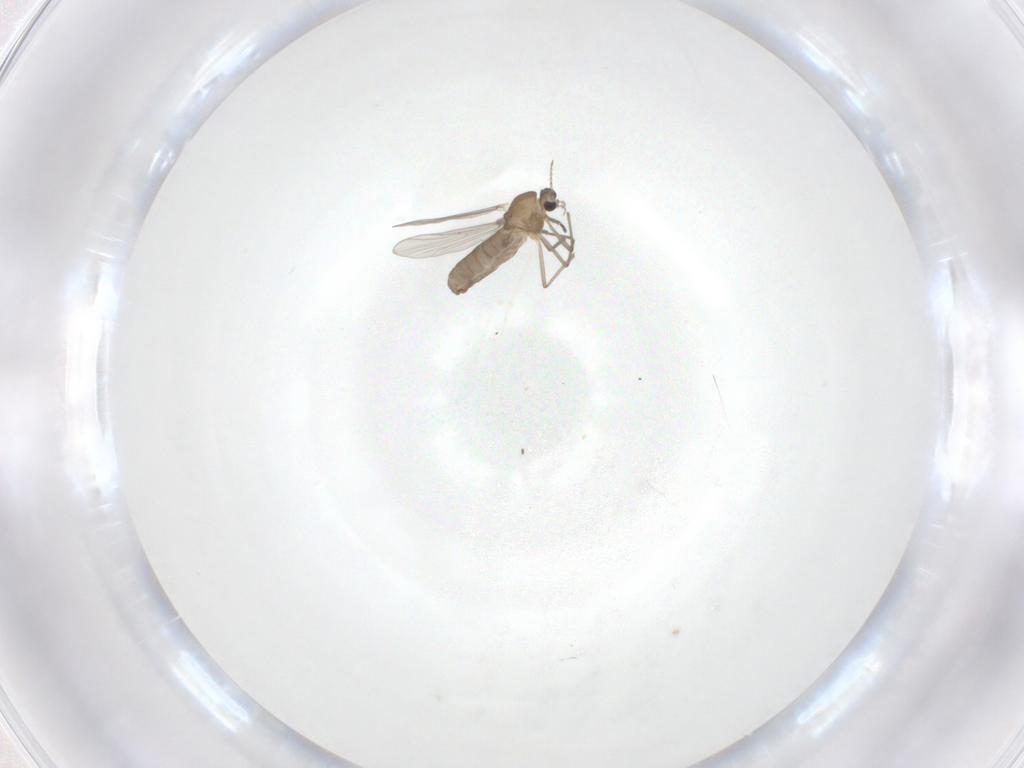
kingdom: Animalia
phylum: Arthropoda
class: Insecta
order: Diptera
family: Chironomidae
